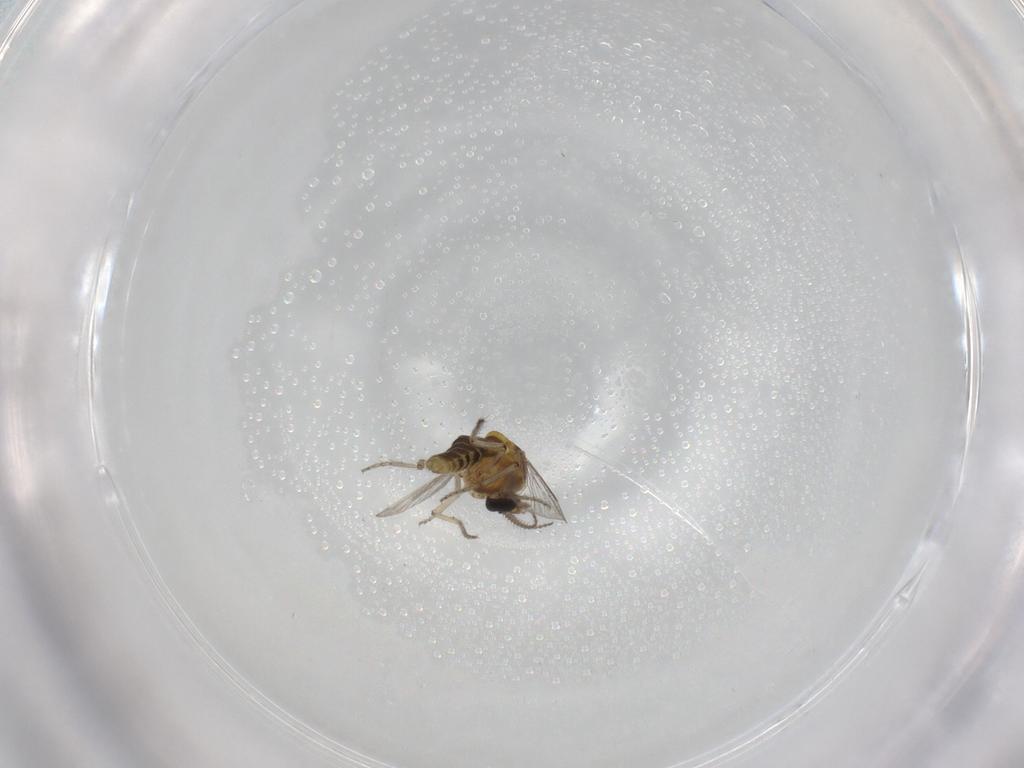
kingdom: Animalia
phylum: Arthropoda
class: Insecta
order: Diptera
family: Ceratopogonidae
